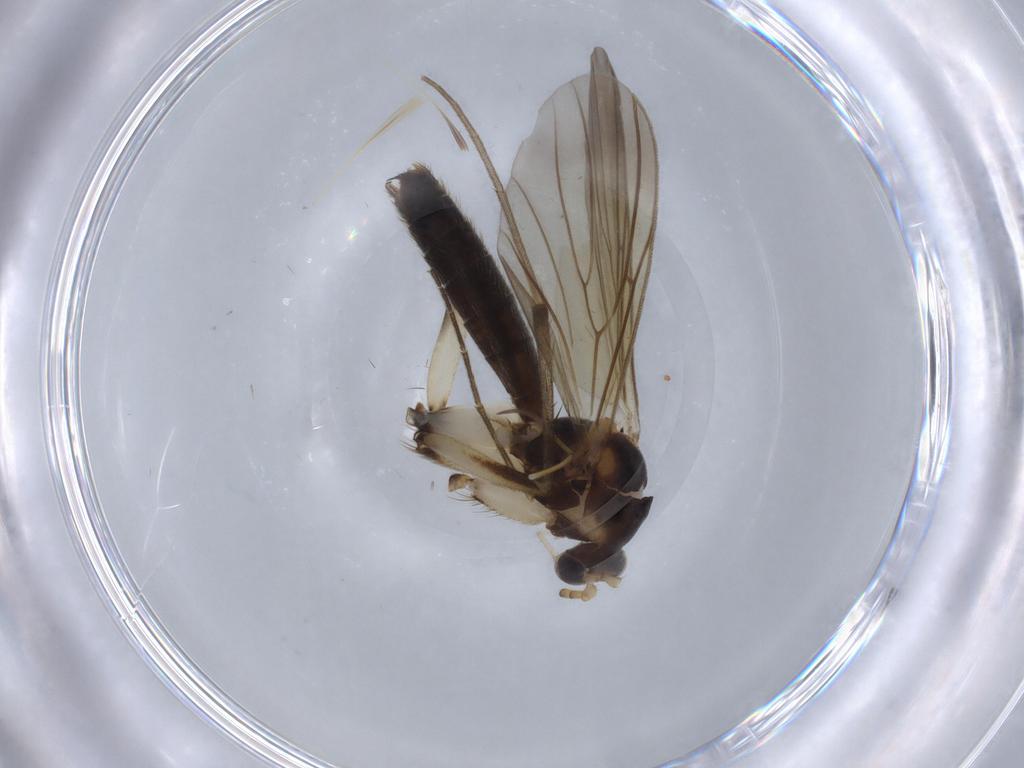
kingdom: Animalia
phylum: Arthropoda
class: Insecta
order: Diptera
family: Mycetophilidae
